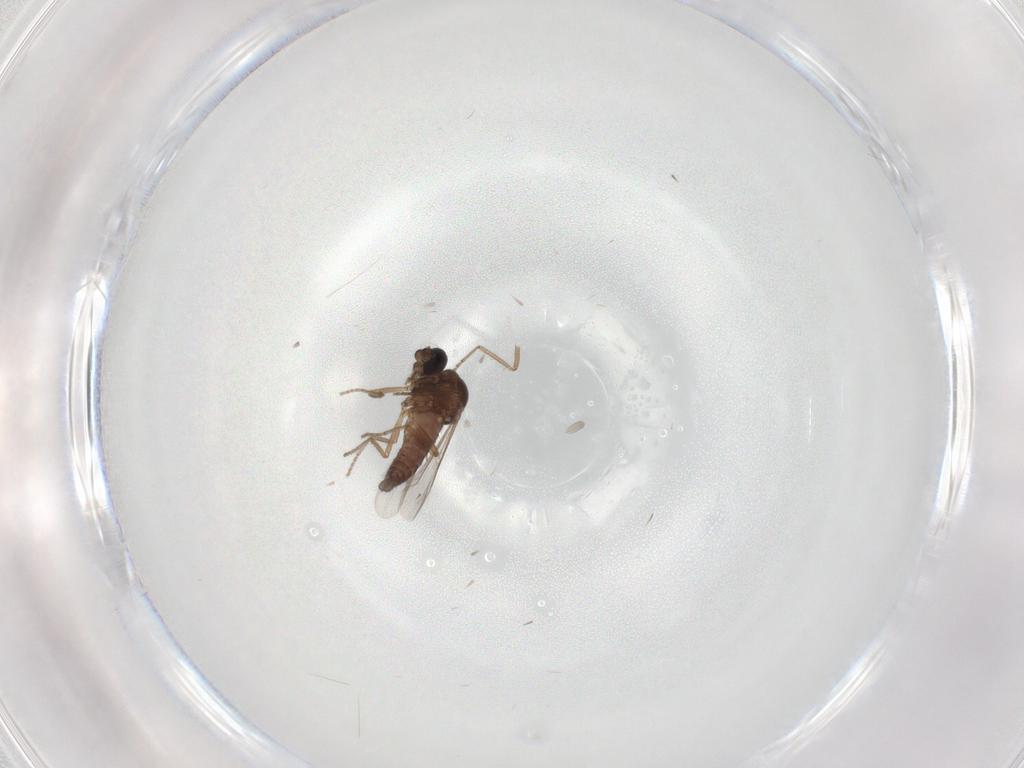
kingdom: Animalia
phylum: Arthropoda
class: Insecta
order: Diptera
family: Ceratopogonidae
